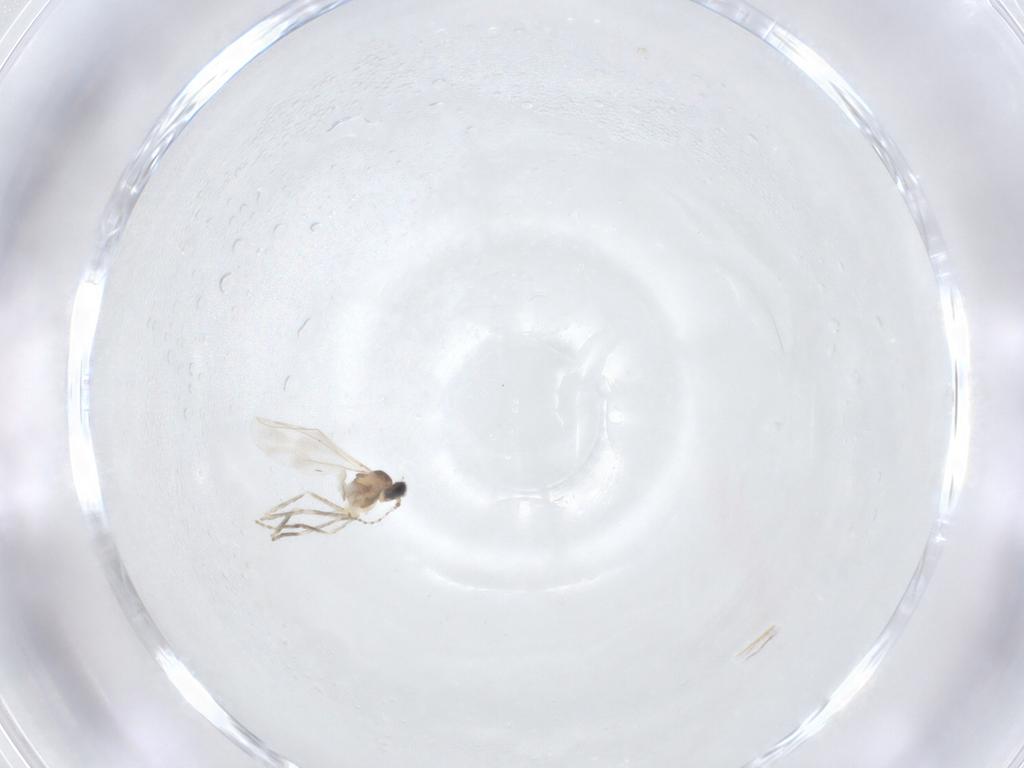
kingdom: Animalia
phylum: Arthropoda
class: Insecta
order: Diptera
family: Cecidomyiidae
